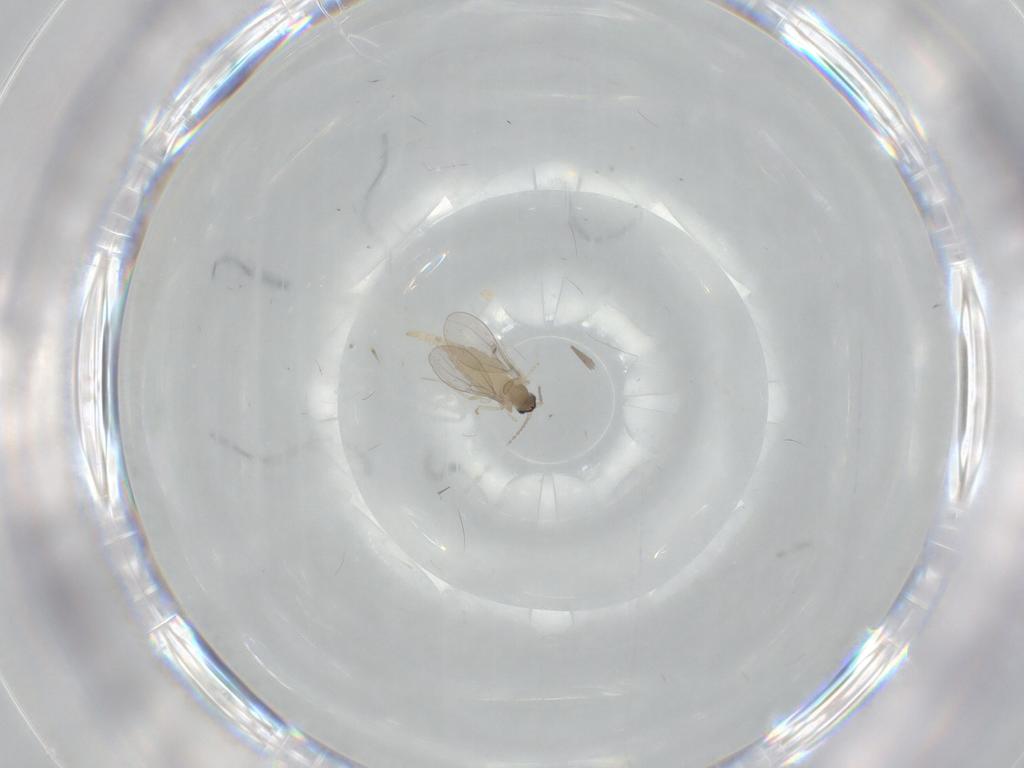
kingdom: Animalia
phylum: Arthropoda
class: Insecta
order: Diptera
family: Cecidomyiidae
